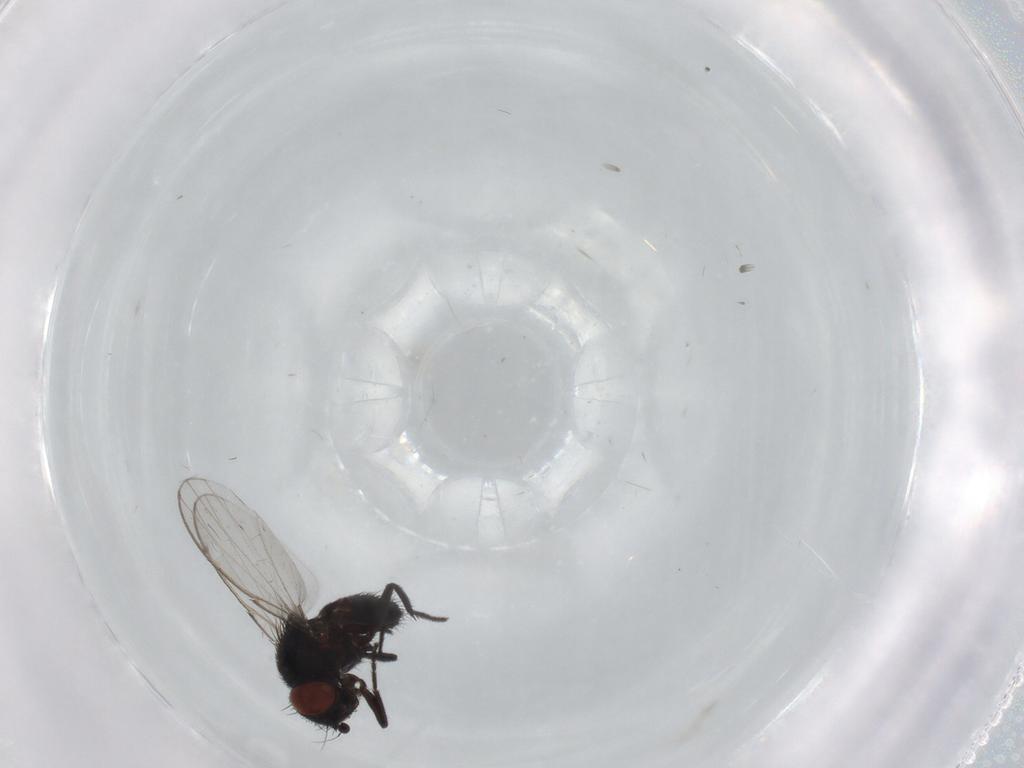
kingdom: Animalia
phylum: Arthropoda
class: Insecta
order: Diptera
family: Milichiidae
